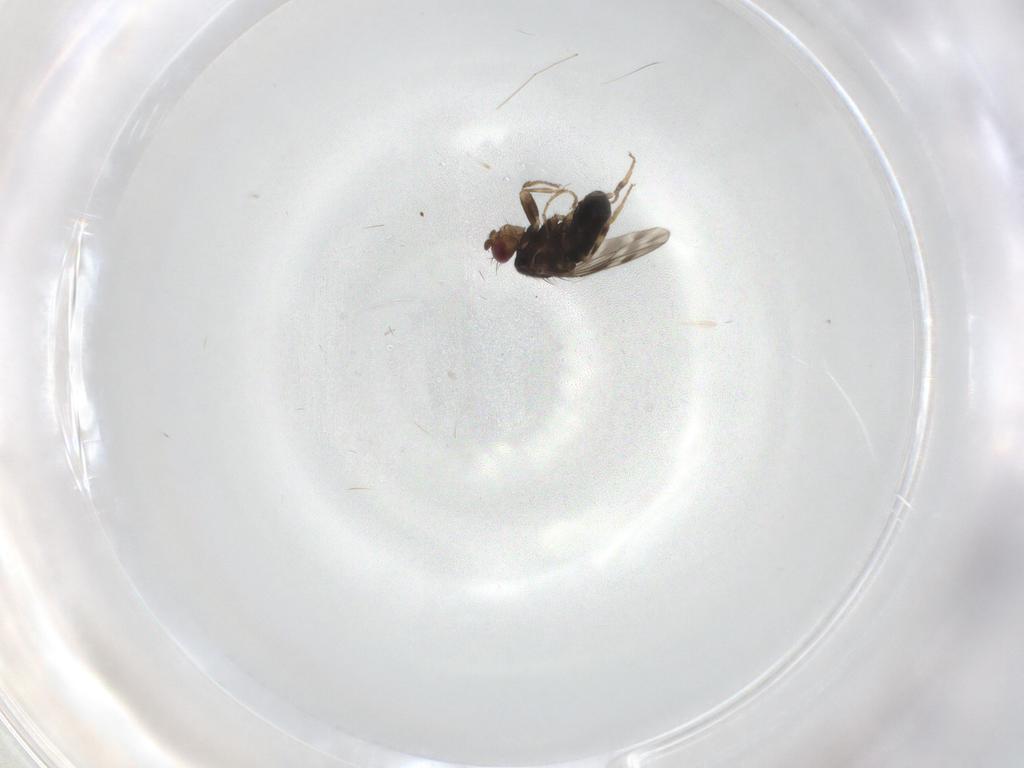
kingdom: Animalia
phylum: Arthropoda
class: Insecta
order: Diptera
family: Sphaeroceridae
